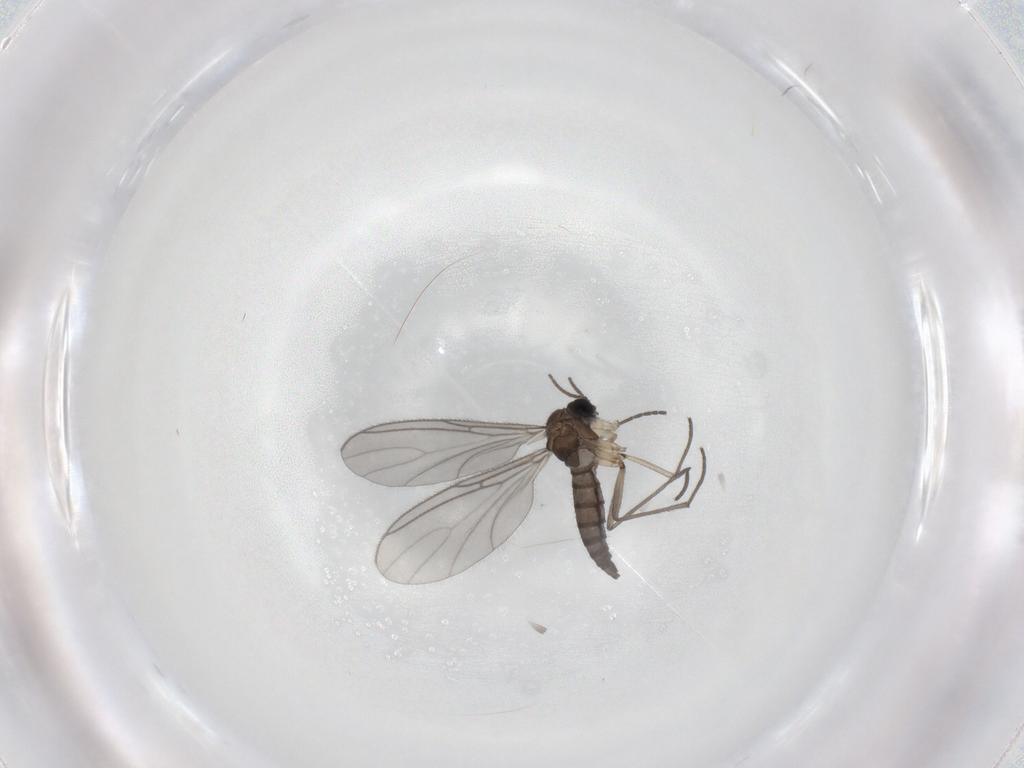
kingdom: Animalia
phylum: Arthropoda
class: Insecta
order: Diptera
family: Sciaridae
